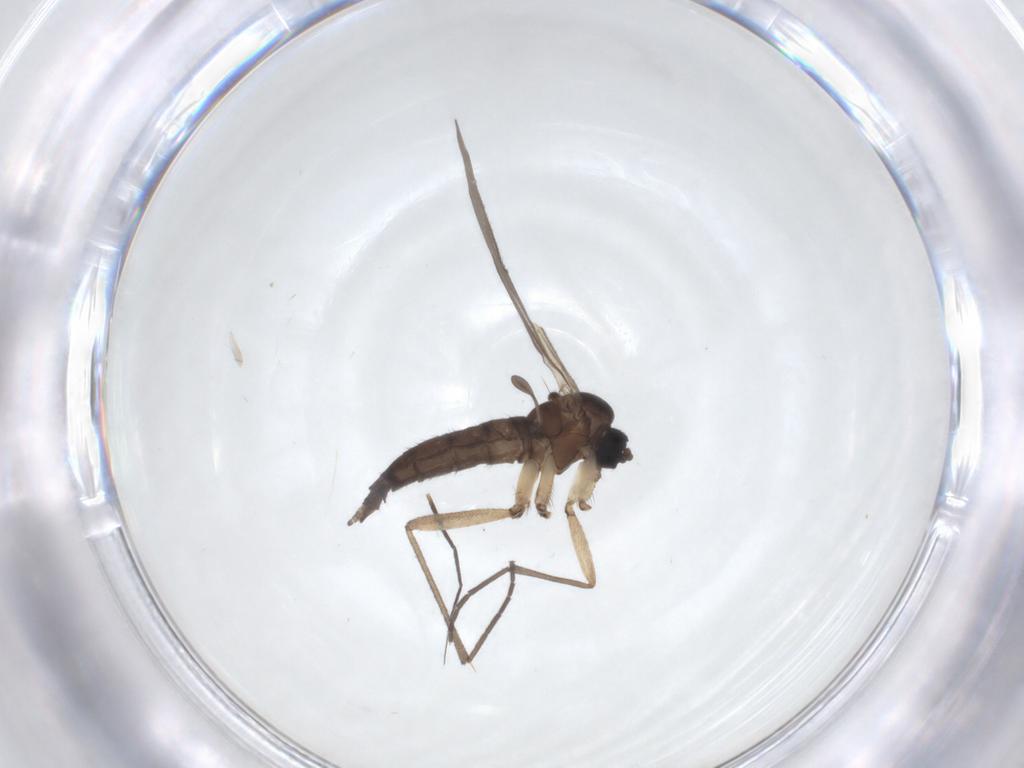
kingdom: Animalia
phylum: Arthropoda
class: Insecta
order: Diptera
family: Sciaridae
